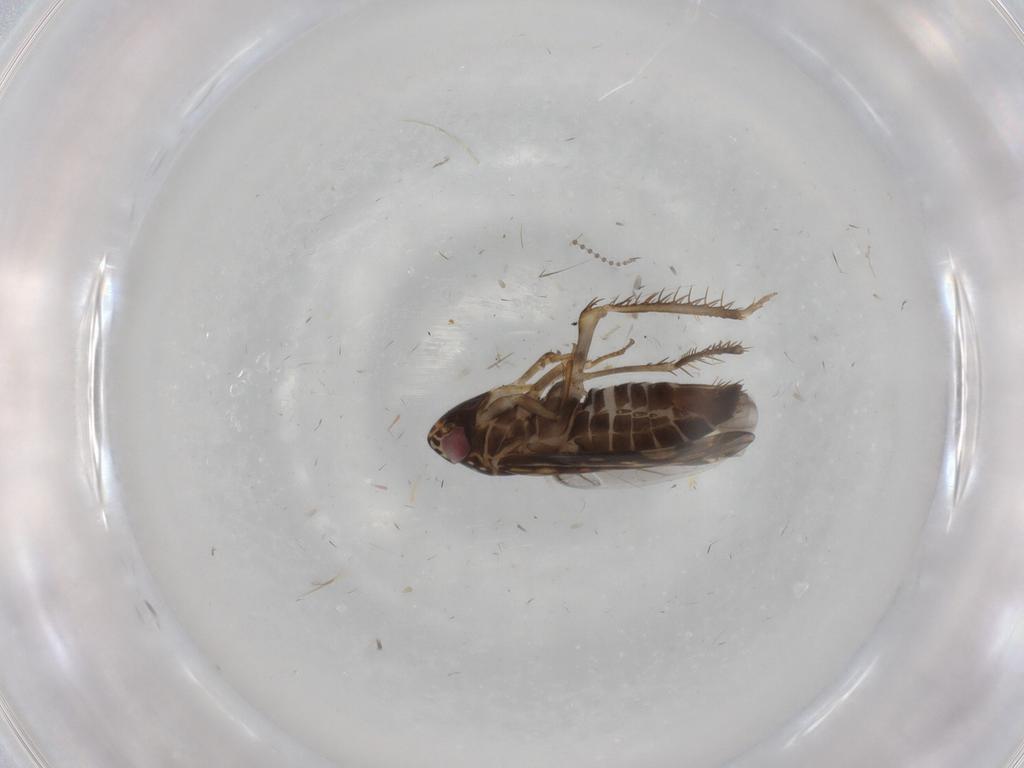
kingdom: Animalia
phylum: Arthropoda
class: Insecta
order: Hemiptera
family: Cicadellidae
